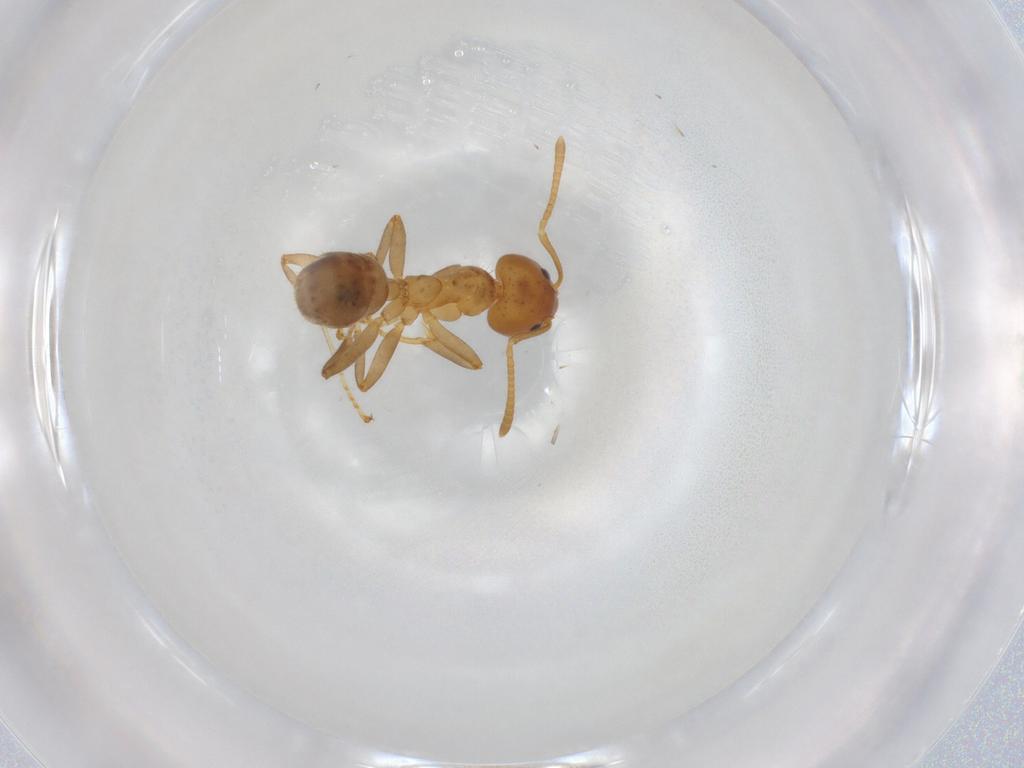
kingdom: Animalia
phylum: Arthropoda
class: Insecta
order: Hymenoptera
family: Formicidae
